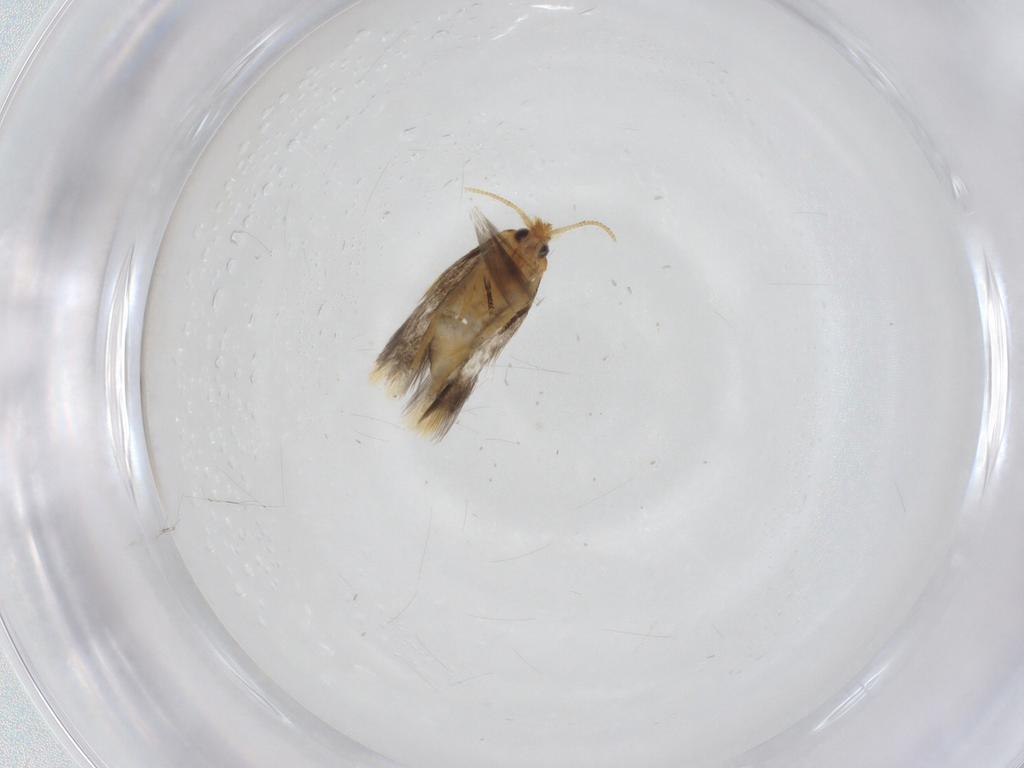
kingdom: Animalia
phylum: Arthropoda
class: Insecta
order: Lepidoptera
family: Copromorphidae
